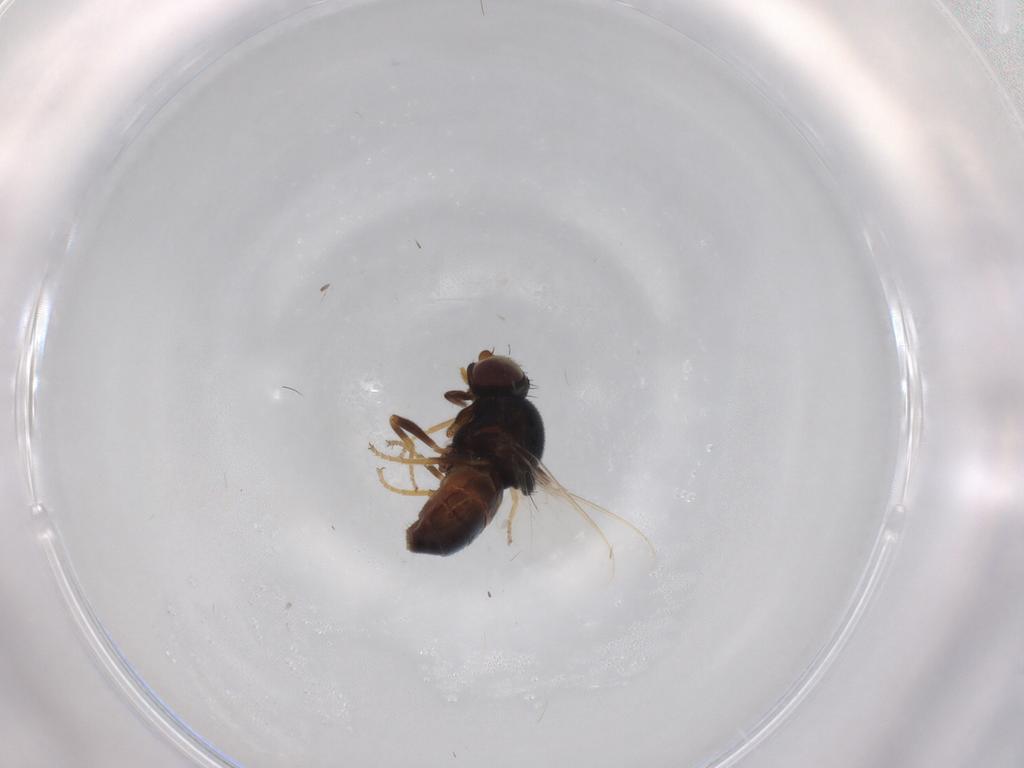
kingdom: Animalia
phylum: Arthropoda
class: Insecta
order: Diptera
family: Chloropidae
